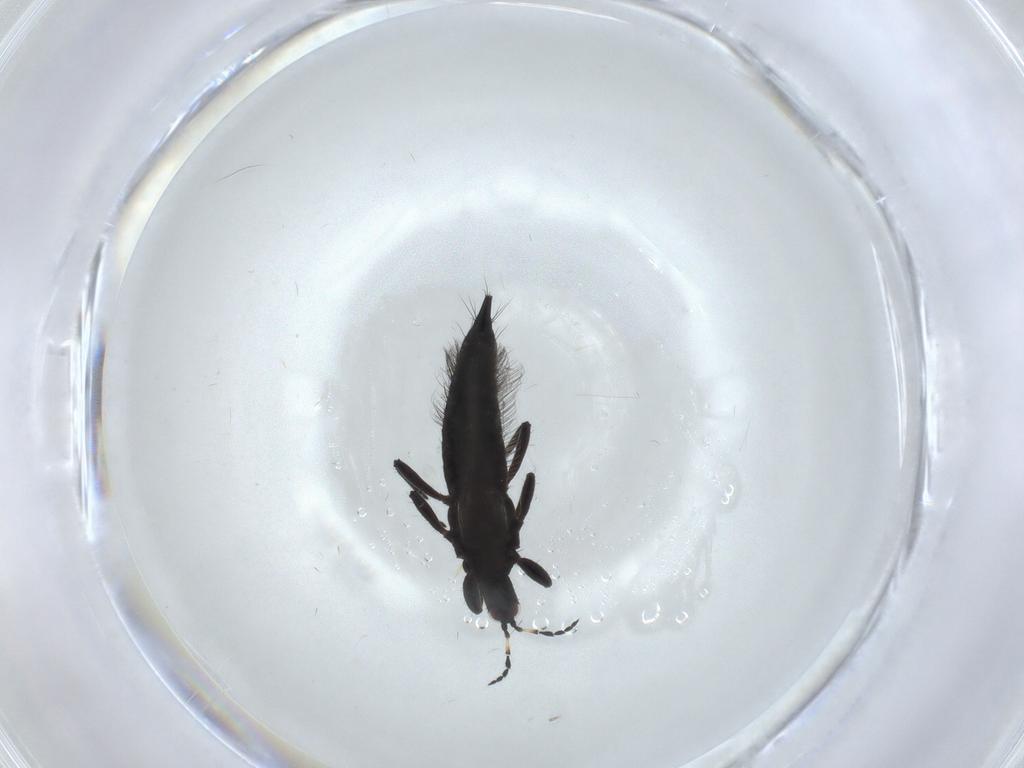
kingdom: Animalia
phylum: Arthropoda
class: Insecta
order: Thysanoptera
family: Phlaeothripidae
